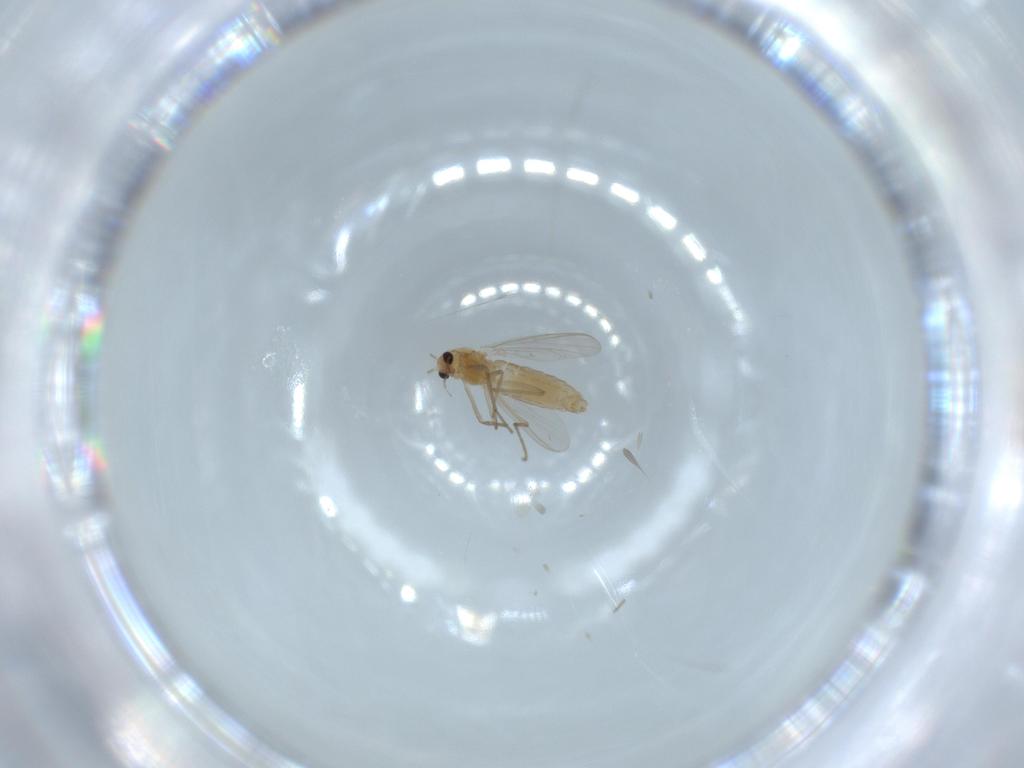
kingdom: Animalia
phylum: Arthropoda
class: Insecta
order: Diptera
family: Chironomidae
